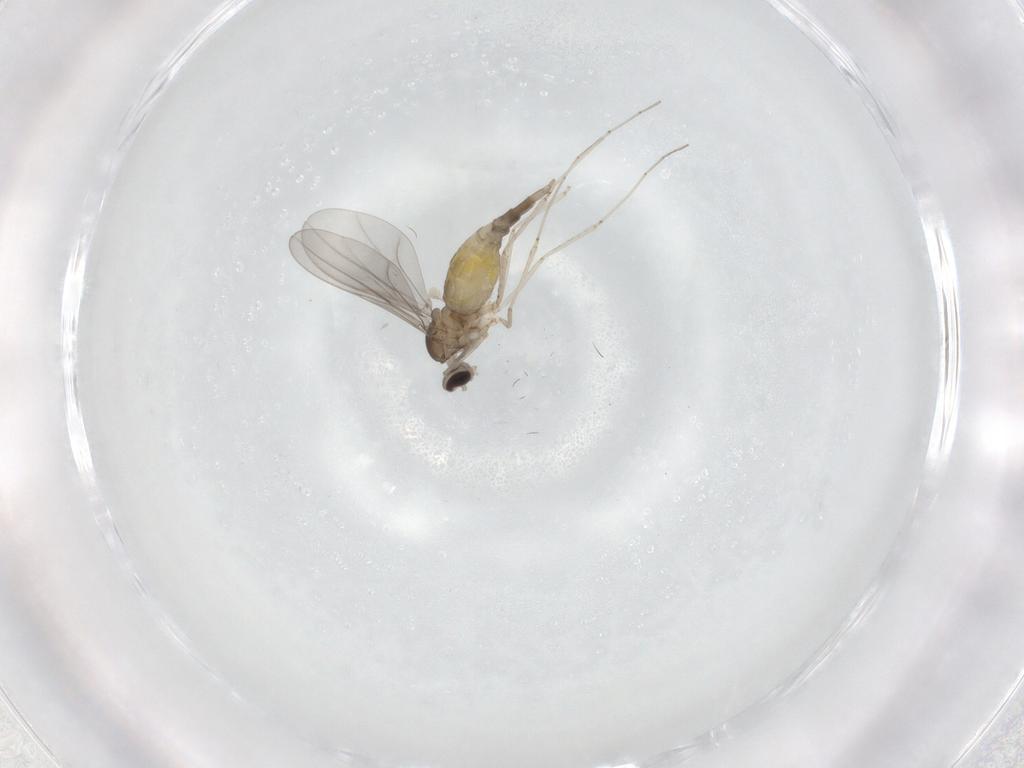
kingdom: Animalia
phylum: Arthropoda
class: Insecta
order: Diptera
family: Cecidomyiidae
